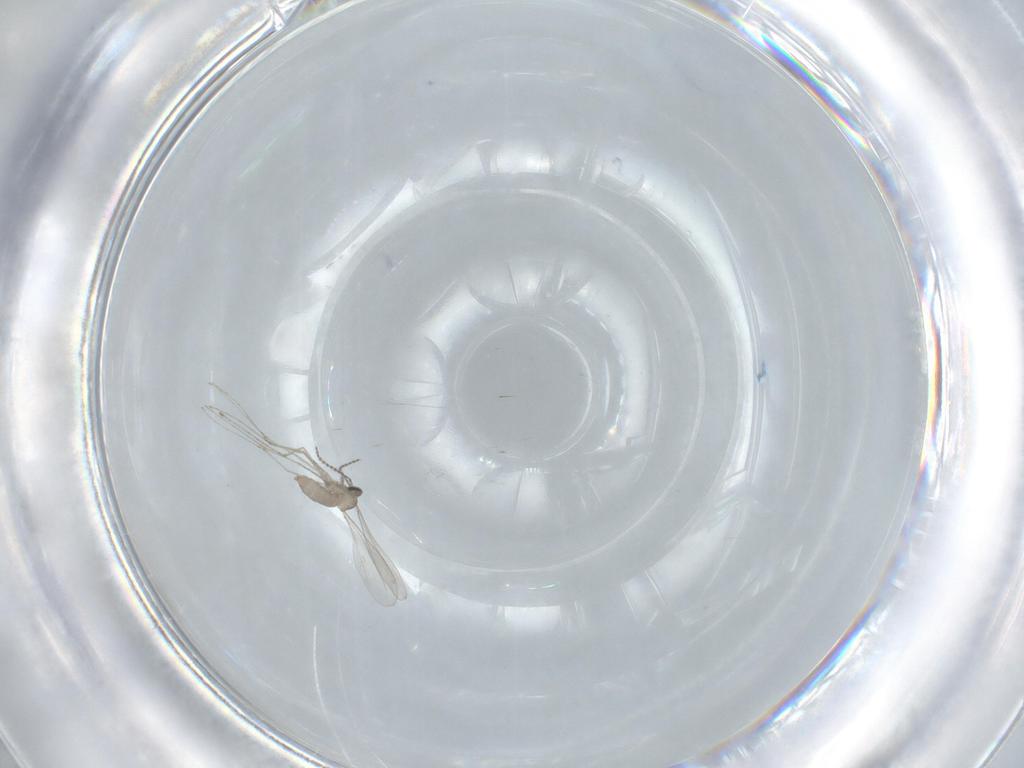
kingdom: Animalia
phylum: Arthropoda
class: Insecta
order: Diptera
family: Cecidomyiidae
